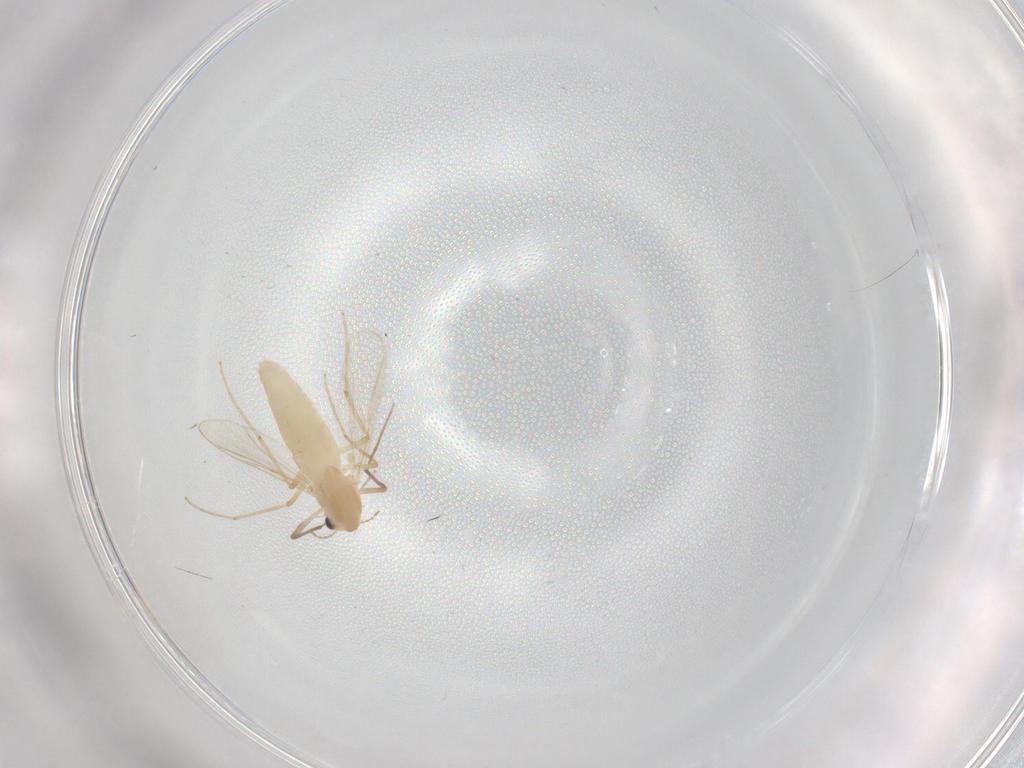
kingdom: Animalia
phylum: Arthropoda
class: Insecta
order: Diptera
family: Chironomidae
